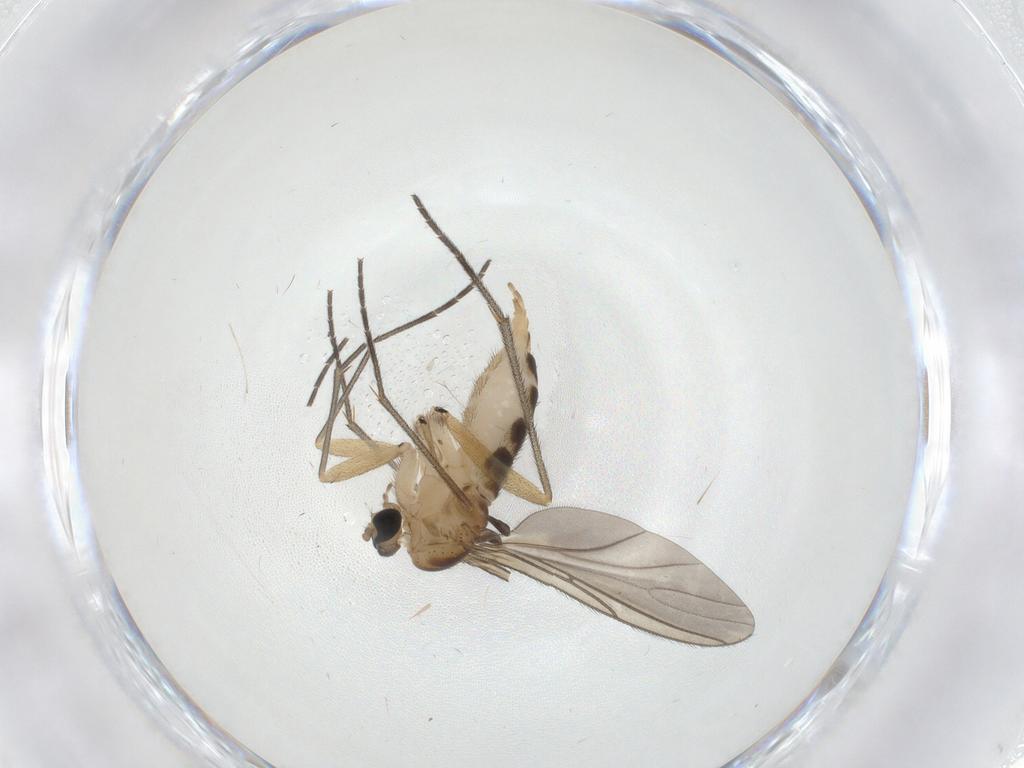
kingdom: Animalia
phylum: Arthropoda
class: Insecta
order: Diptera
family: Sciaridae
